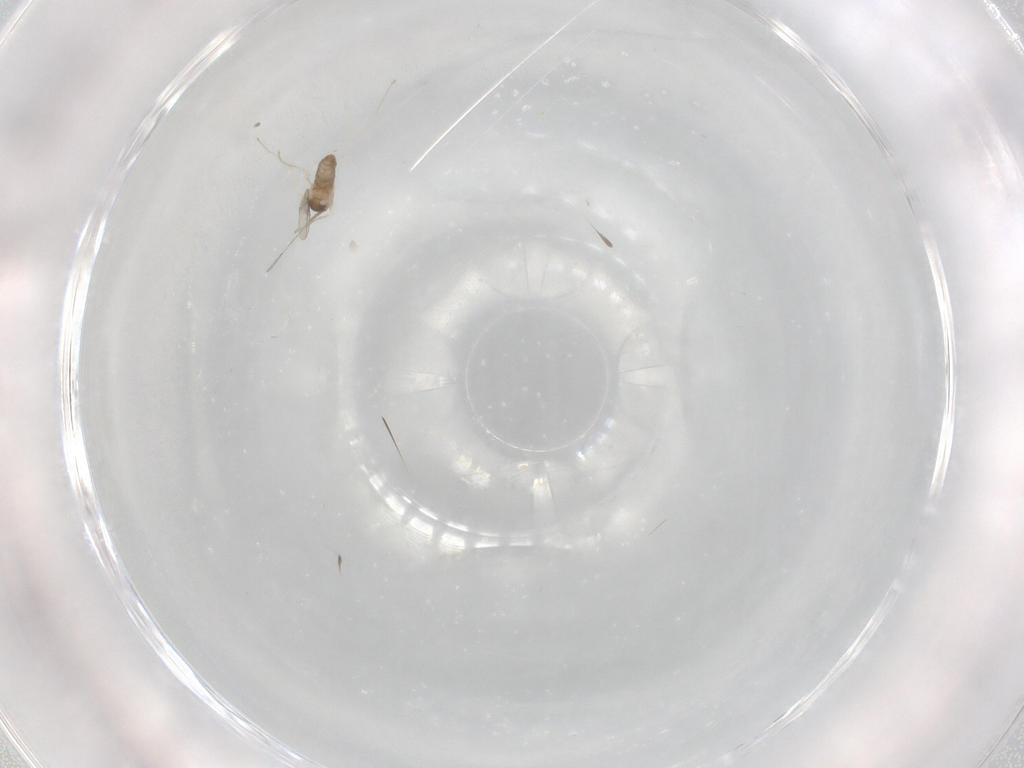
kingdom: Animalia
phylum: Arthropoda
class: Insecta
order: Diptera
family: Cecidomyiidae
